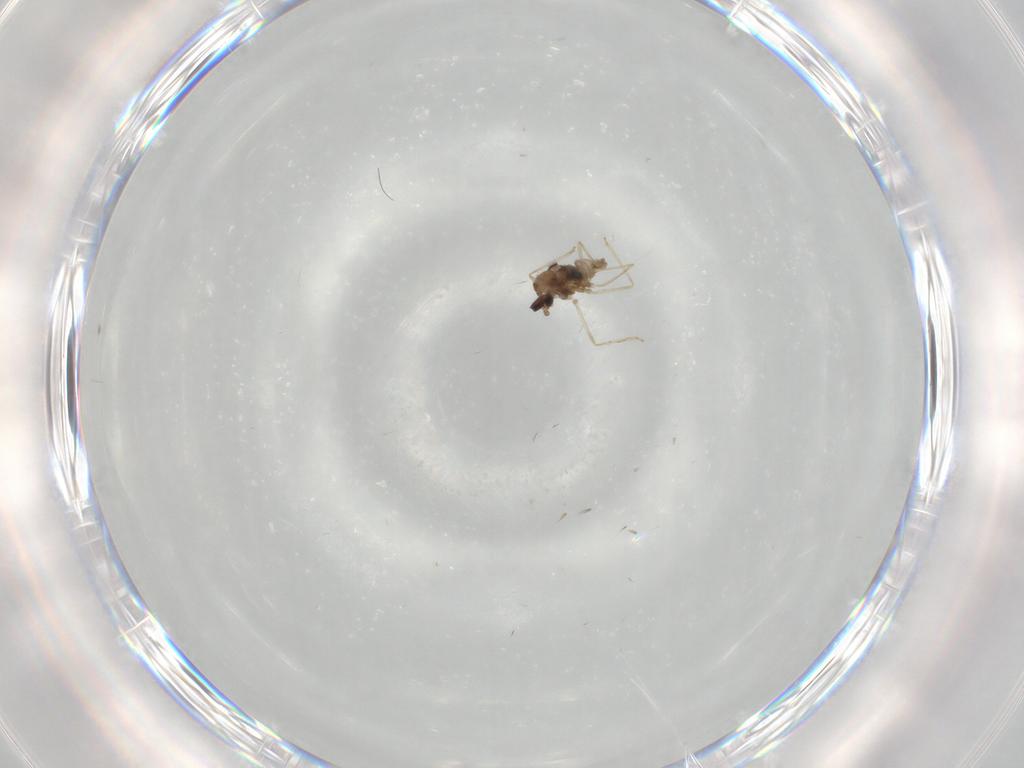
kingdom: Animalia
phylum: Arthropoda
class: Insecta
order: Diptera
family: Cecidomyiidae
